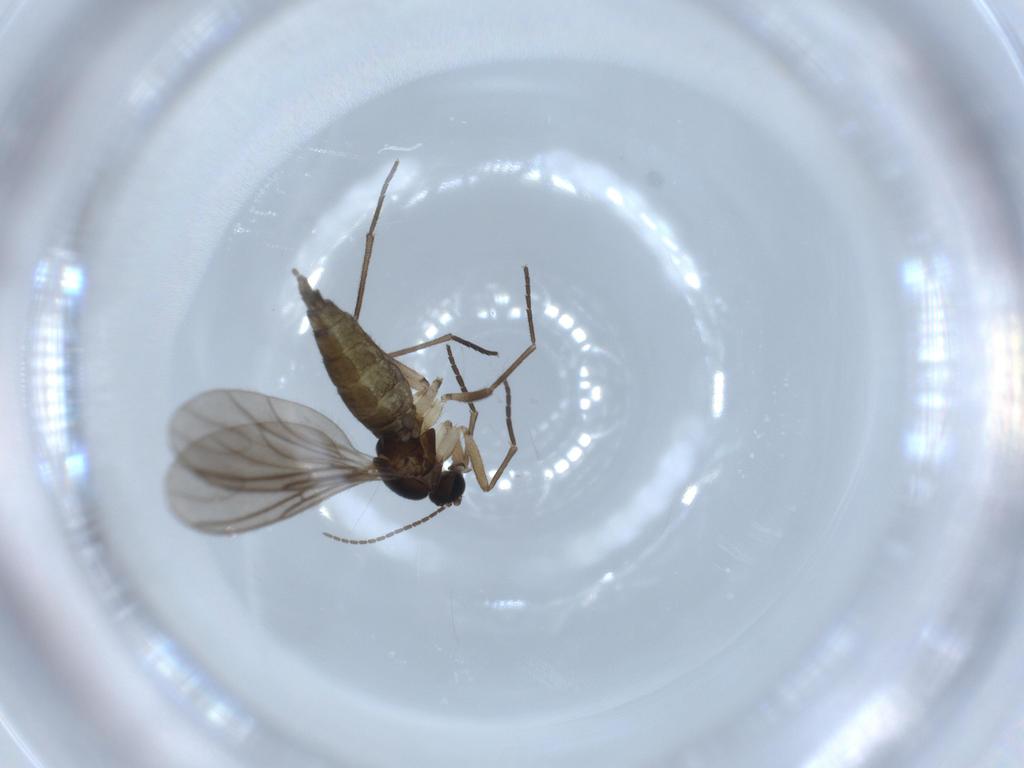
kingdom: Animalia
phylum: Arthropoda
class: Insecta
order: Diptera
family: Sciaridae
